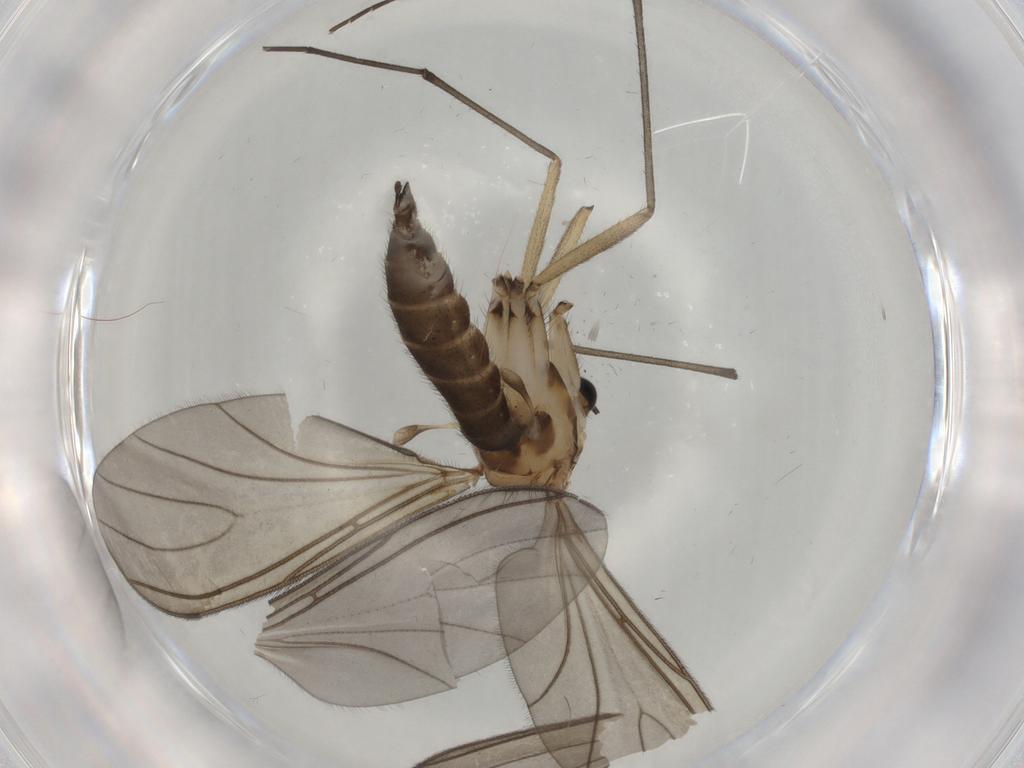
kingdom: Animalia
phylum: Arthropoda
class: Insecta
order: Diptera
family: Sciaridae
